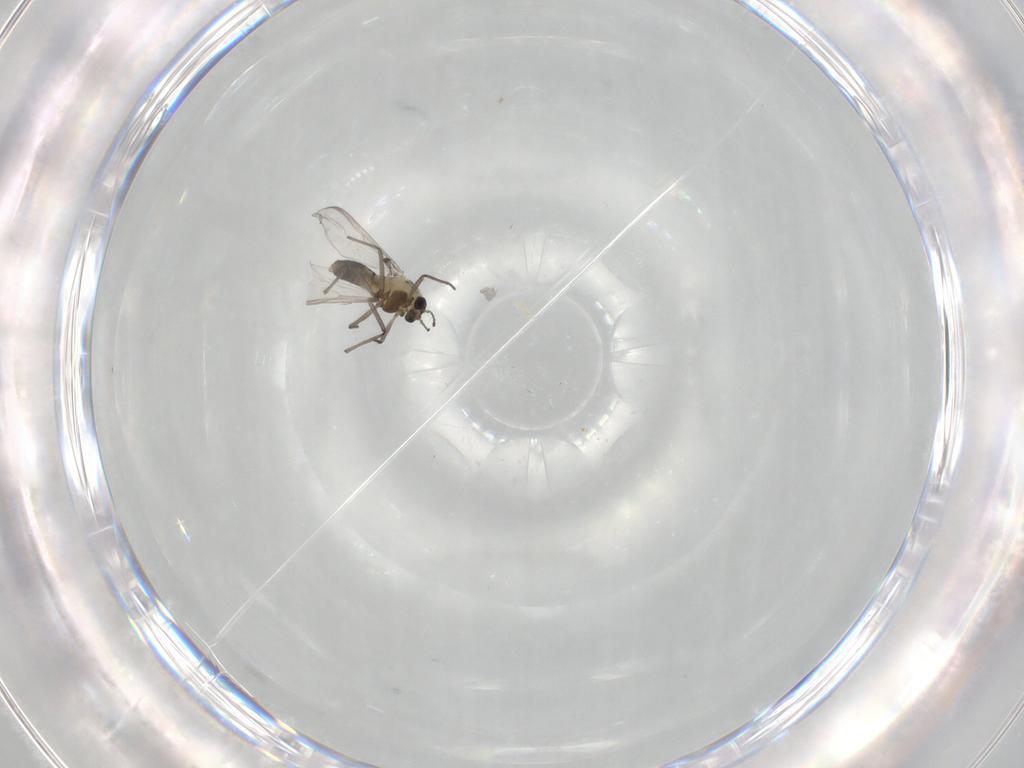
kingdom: Animalia
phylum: Arthropoda
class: Insecta
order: Diptera
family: Chironomidae
